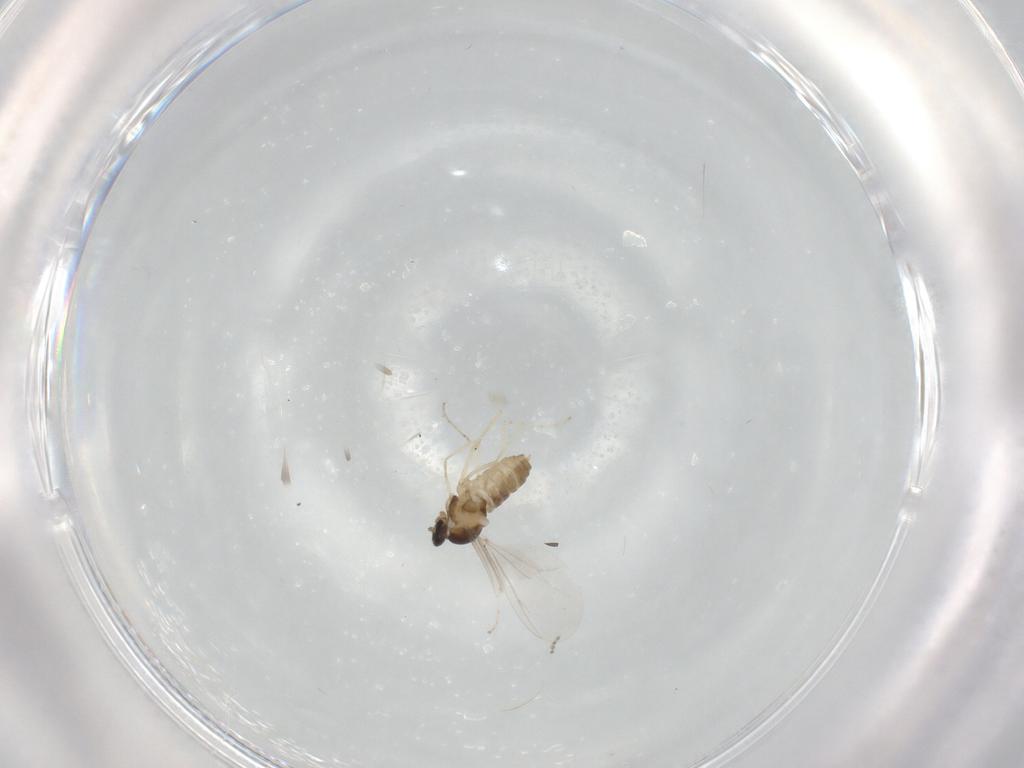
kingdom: Animalia
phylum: Arthropoda
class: Insecta
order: Diptera
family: Cecidomyiidae
